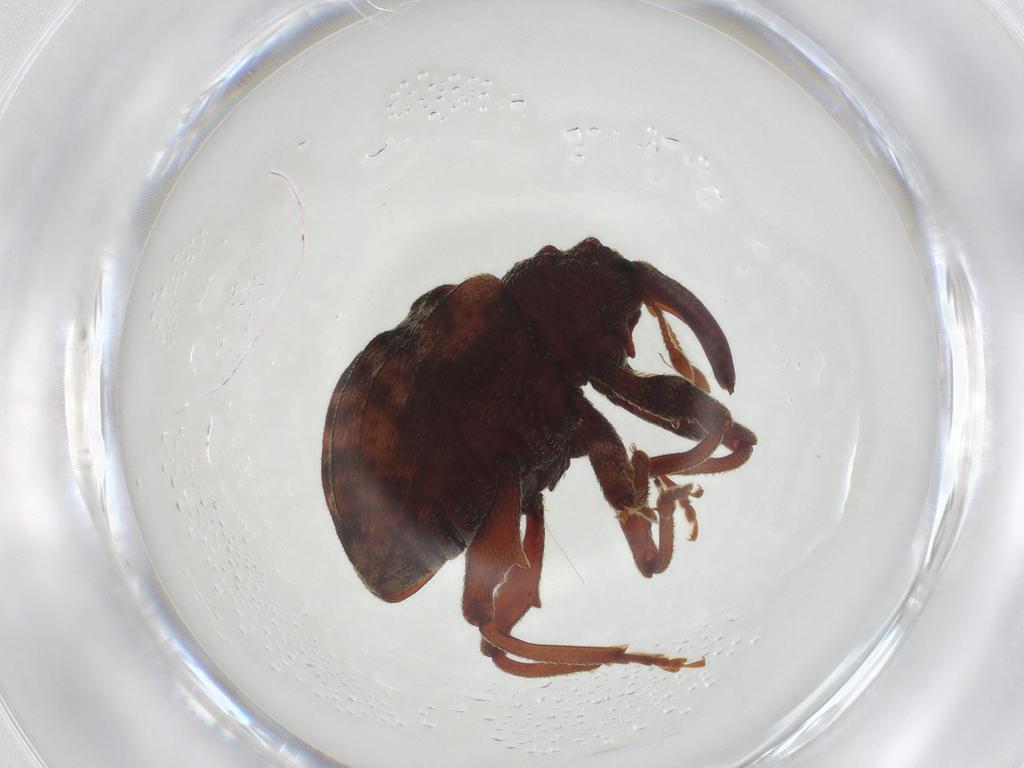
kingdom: Animalia
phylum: Arthropoda
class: Insecta
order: Coleoptera
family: Curculionidae
